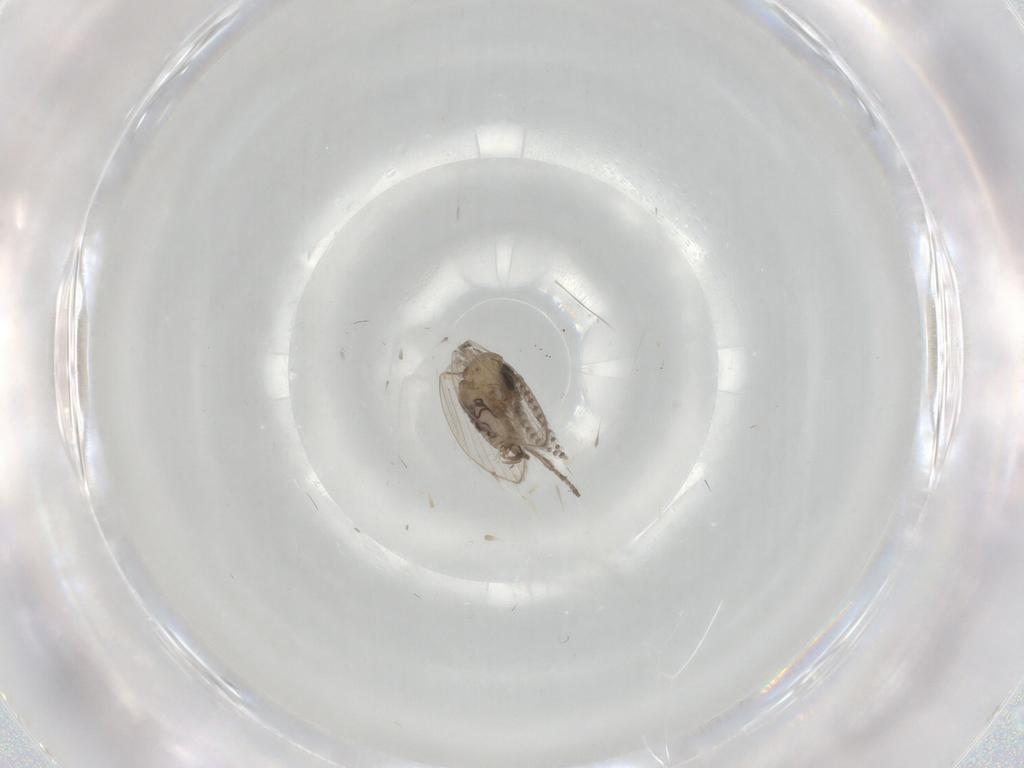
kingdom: Animalia
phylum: Arthropoda
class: Insecta
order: Diptera
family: Psychodidae
